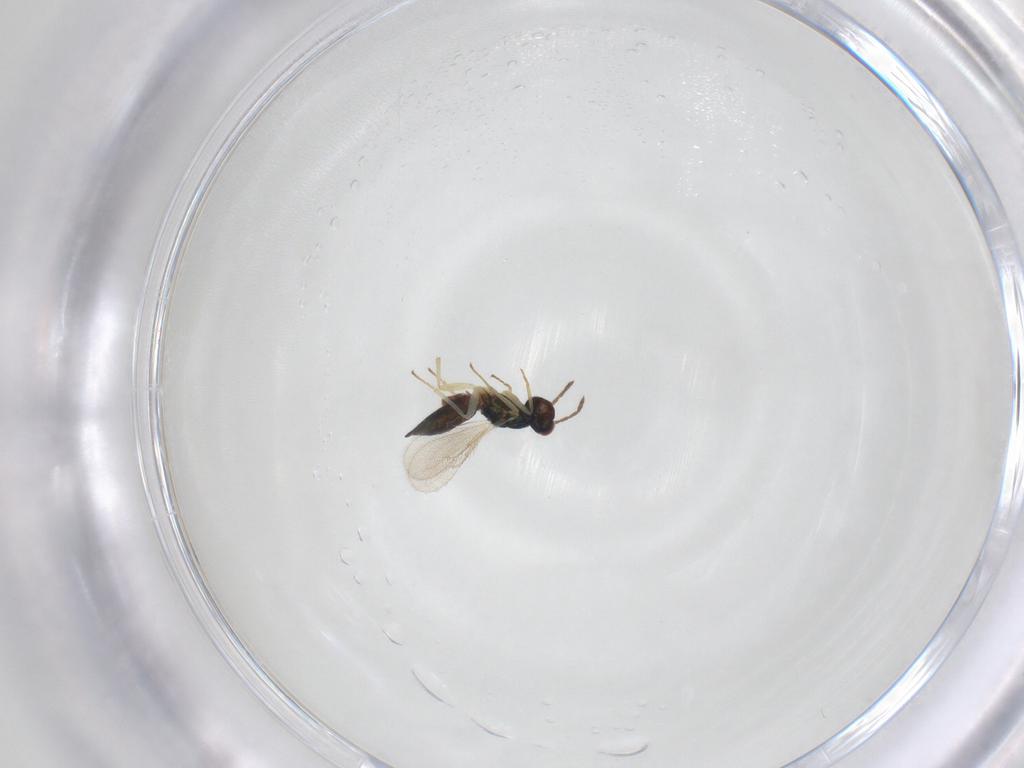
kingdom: Animalia
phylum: Arthropoda
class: Insecta
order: Hymenoptera
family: Eulophidae
